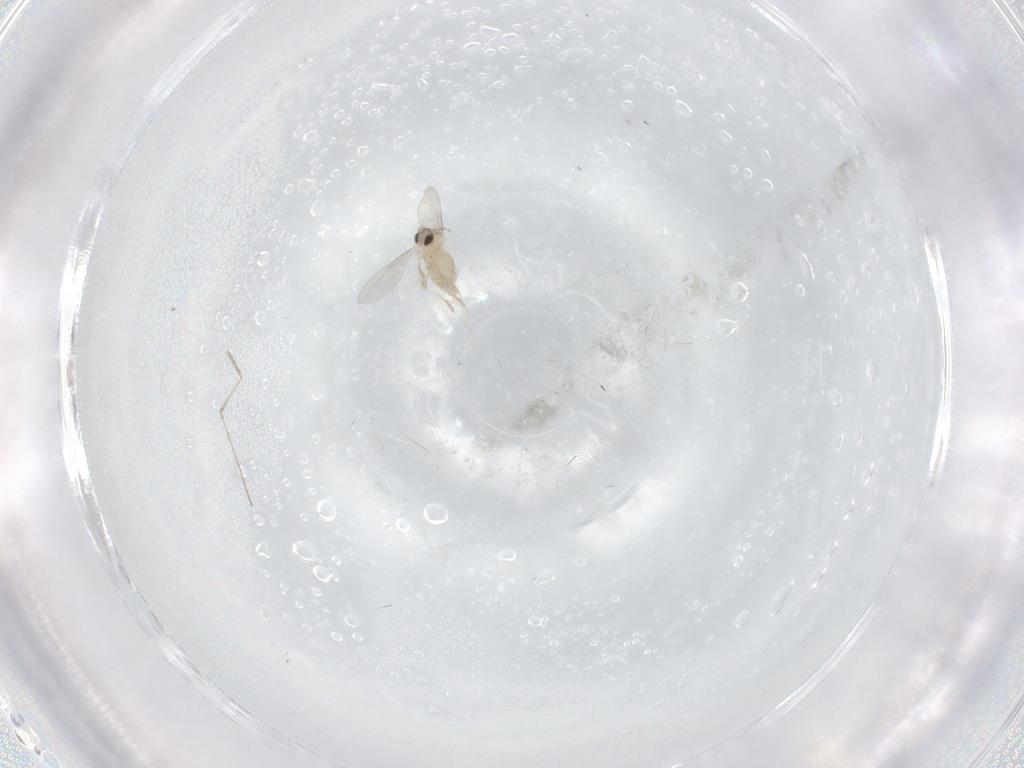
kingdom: Animalia
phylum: Arthropoda
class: Insecta
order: Diptera
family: Cecidomyiidae
